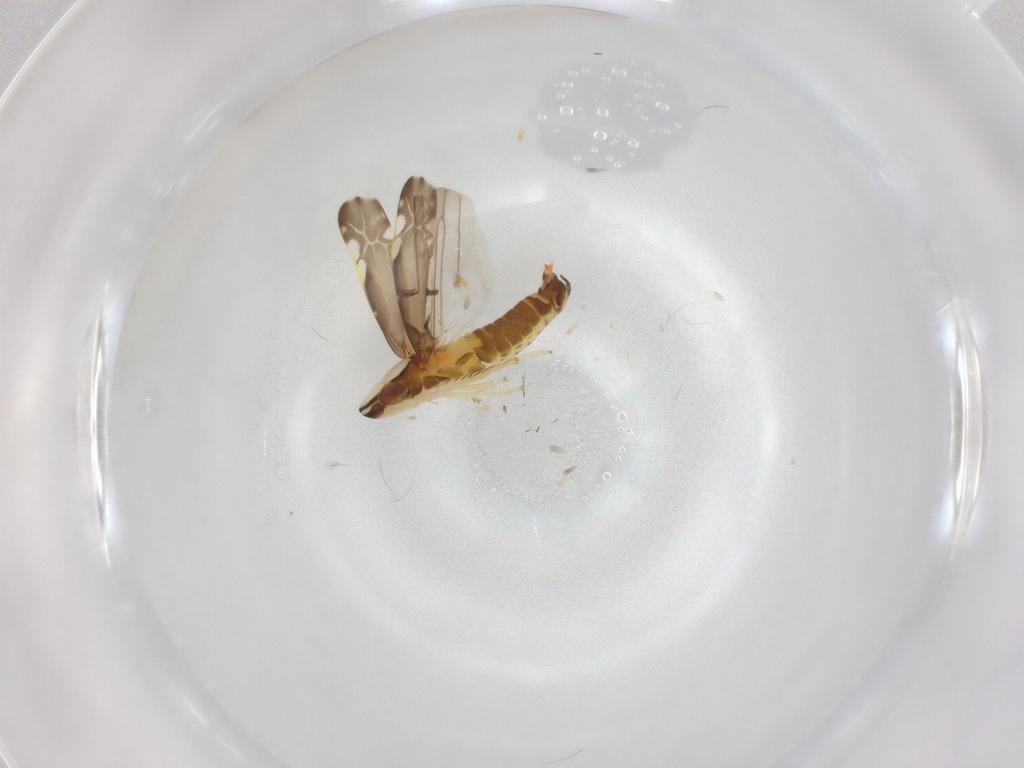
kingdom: Animalia
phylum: Arthropoda
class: Insecta
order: Hemiptera
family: Cicadellidae
